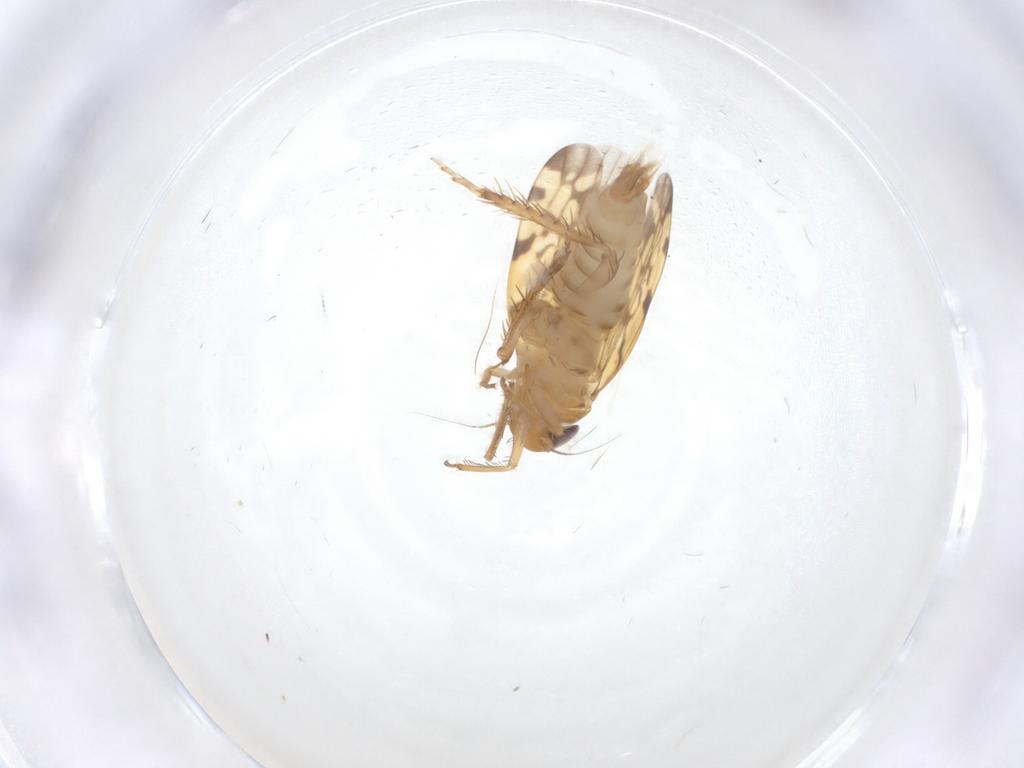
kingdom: Animalia
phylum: Arthropoda
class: Insecta
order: Hemiptera
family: Cicadellidae
